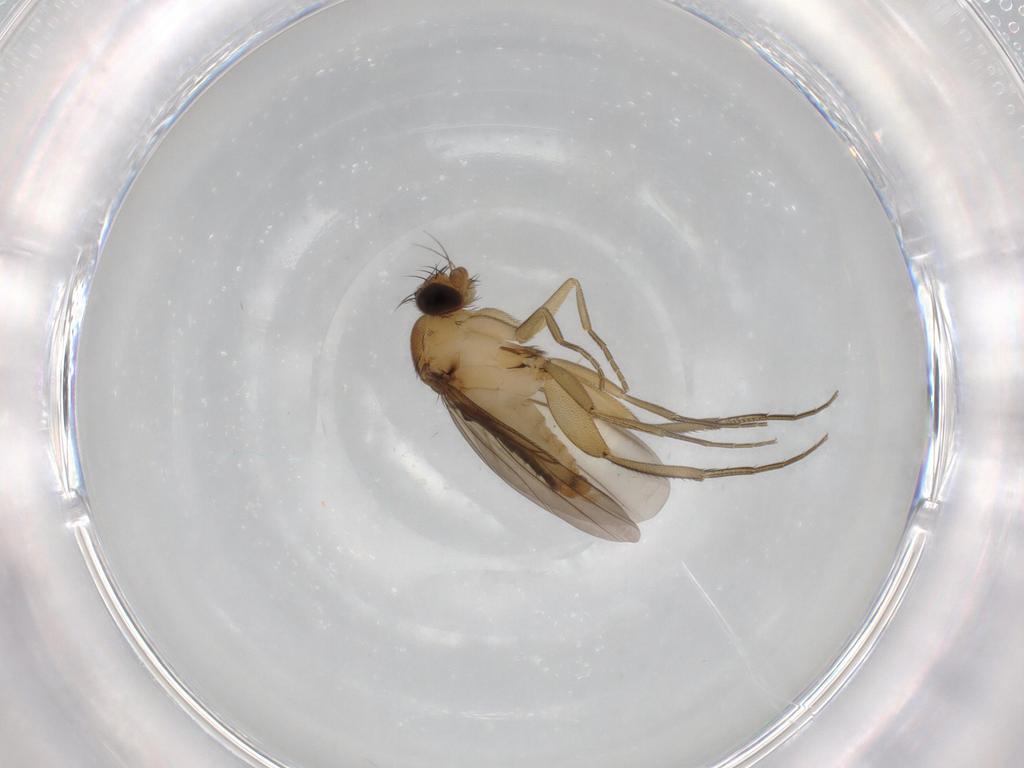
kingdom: Animalia
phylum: Arthropoda
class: Insecta
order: Diptera
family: Phoridae
